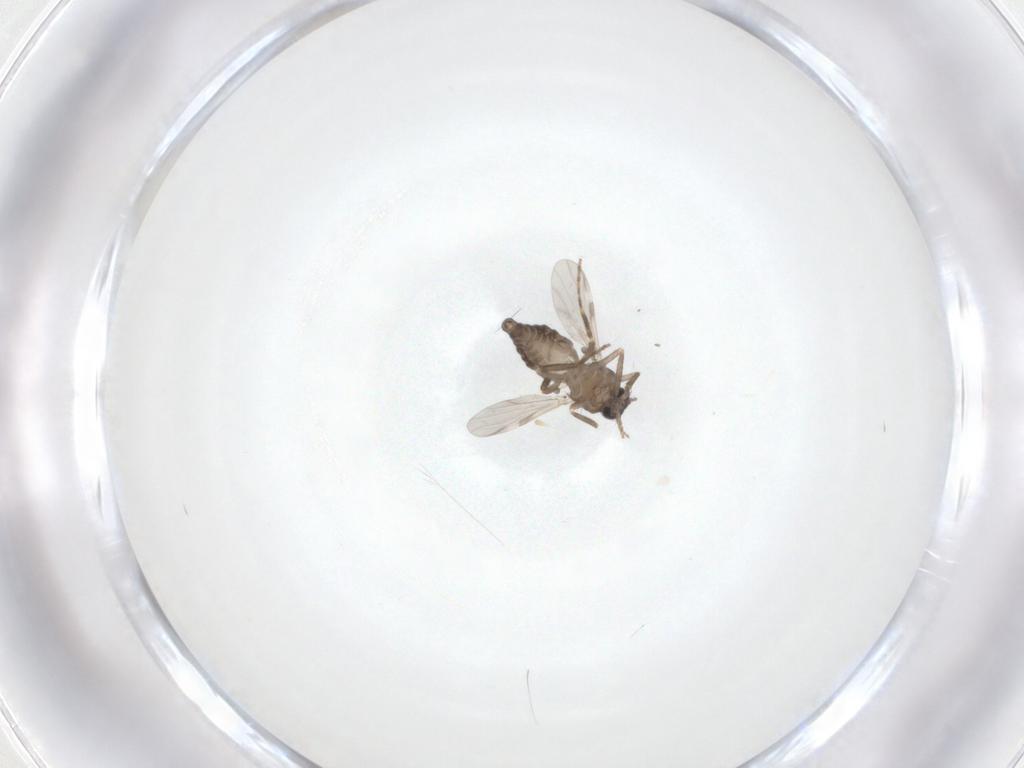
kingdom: Animalia
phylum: Arthropoda
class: Insecta
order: Diptera
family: Ceratopogonidae
